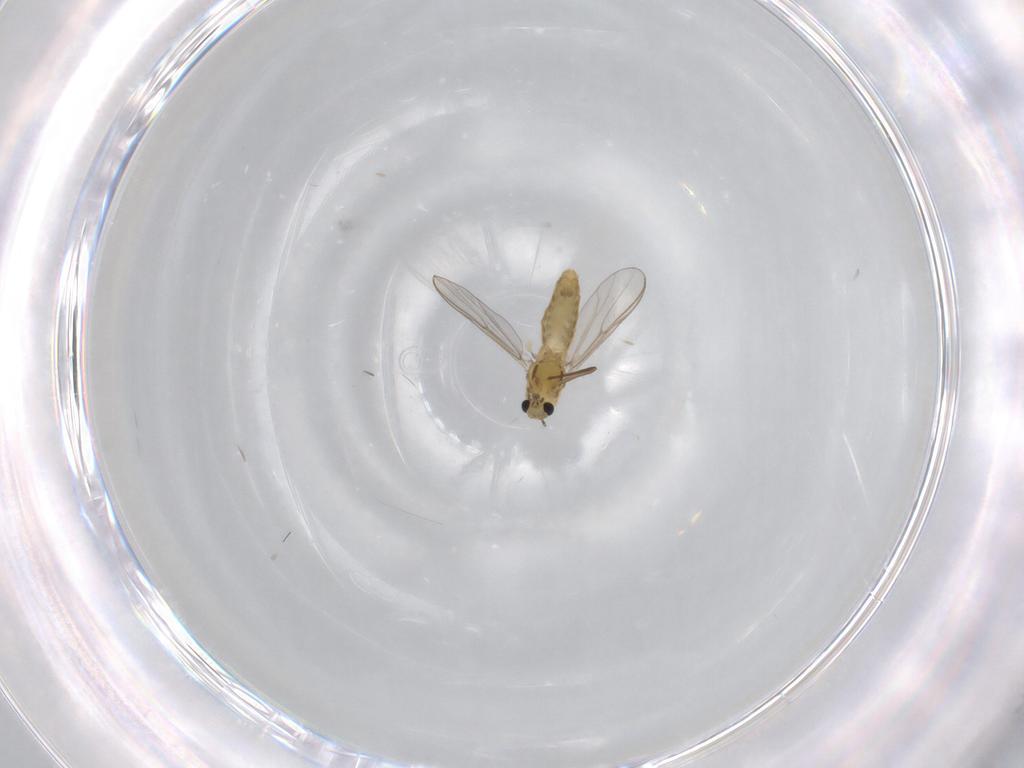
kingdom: Animalia
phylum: Arthropoda
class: Insecta
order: Diptera
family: Chironomidae
